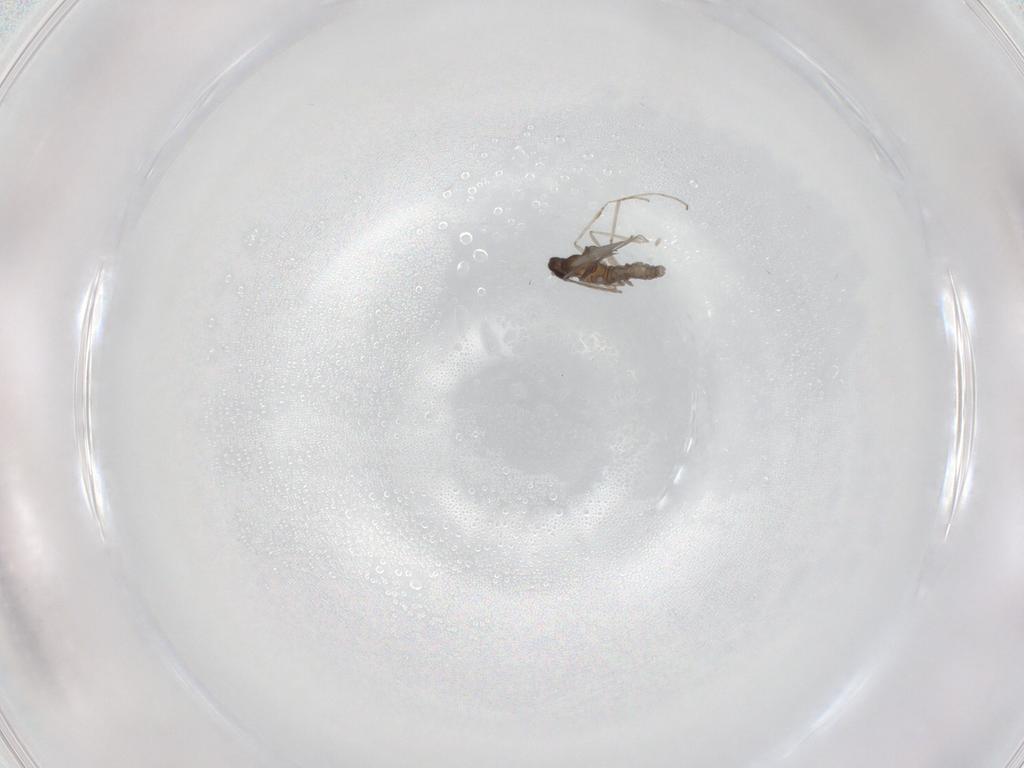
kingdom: Animalia
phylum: Arthropoda
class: Insecta
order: Diptera
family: Cecidomyiidae
